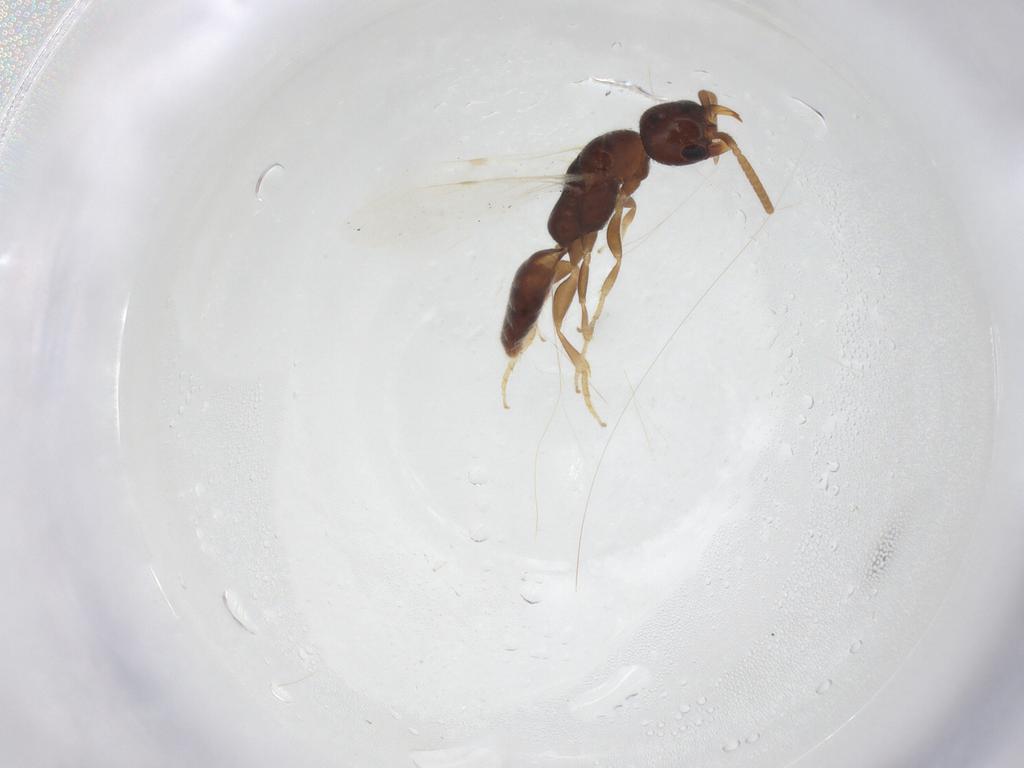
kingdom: Animalia
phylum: Arthropoda
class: Insecta
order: Hymenoptera
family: Bethylidae
